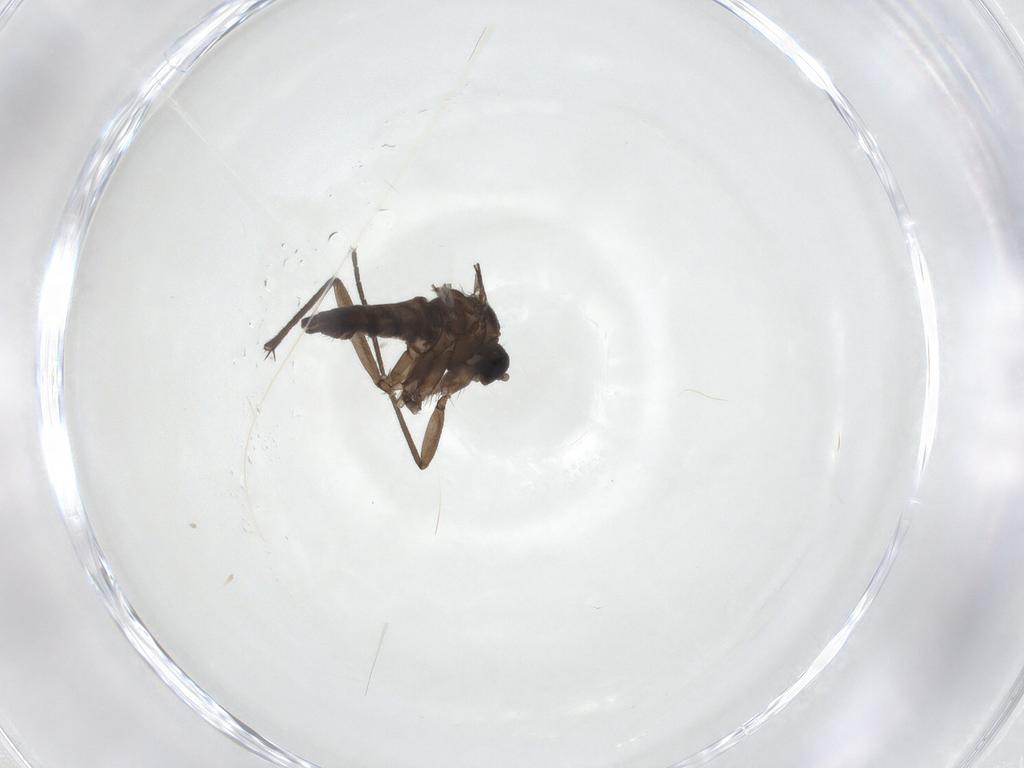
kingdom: Animalia
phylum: Arthropoda
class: Insecta
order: Diptera
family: Sciaridae
